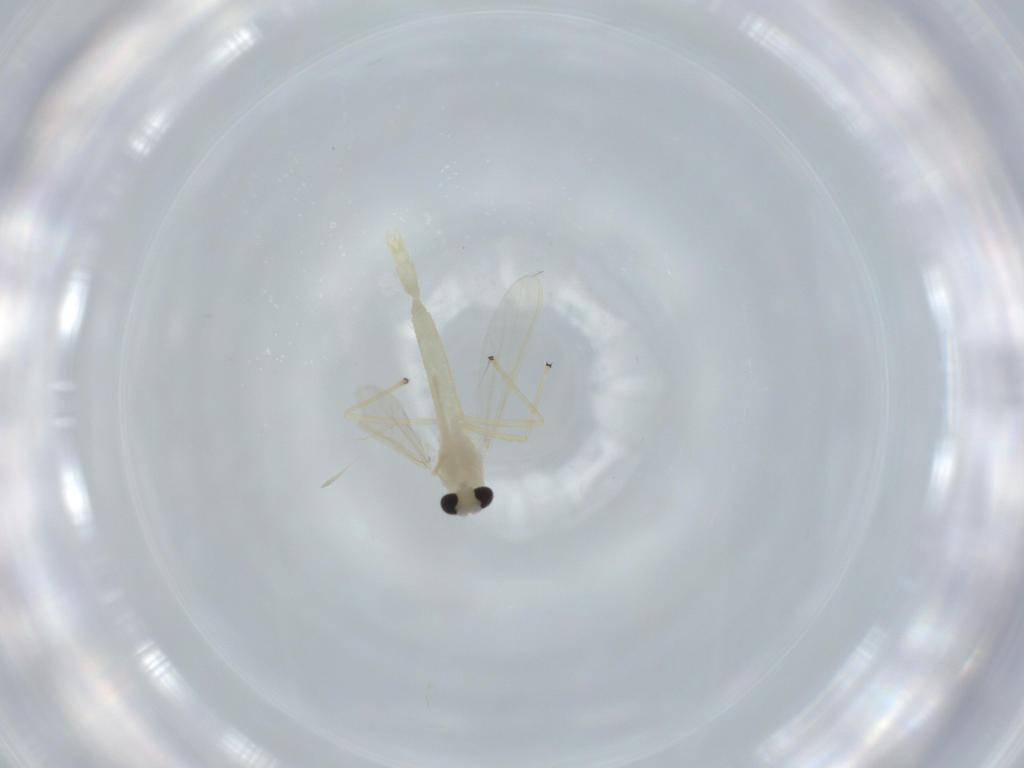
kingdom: Animalia
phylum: Arthropoda
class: Insecta
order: Diptera
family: Chironomidae
